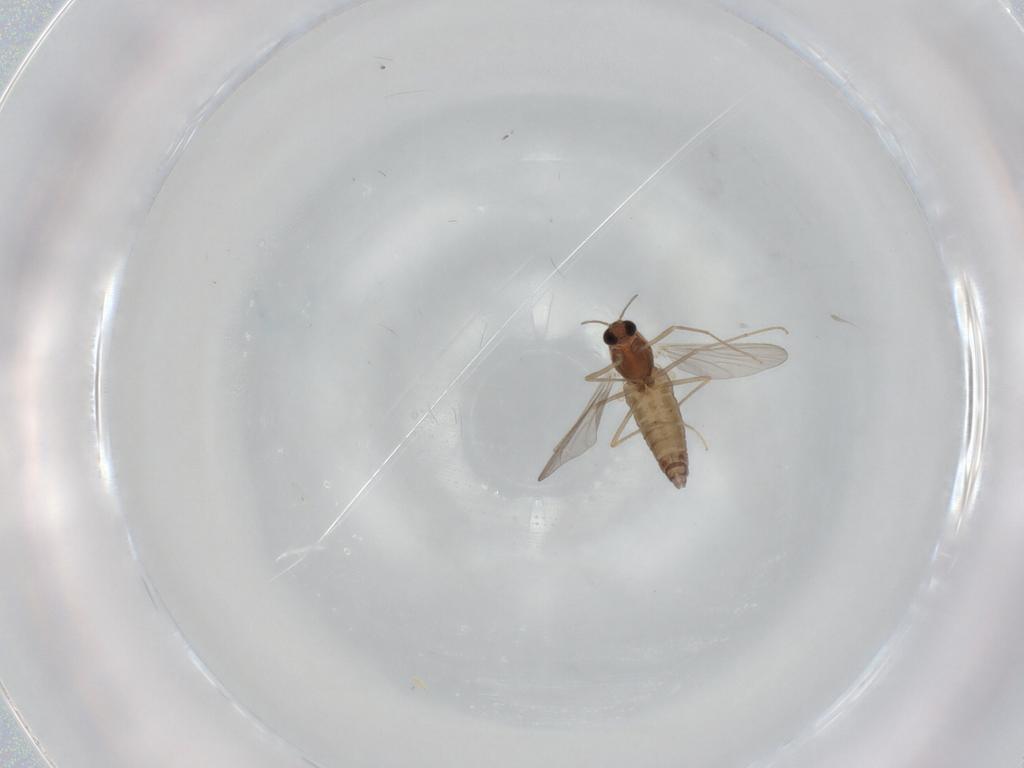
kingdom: Animalia
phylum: Arthropoda
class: Insecta
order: Diptera
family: Chironomidae
